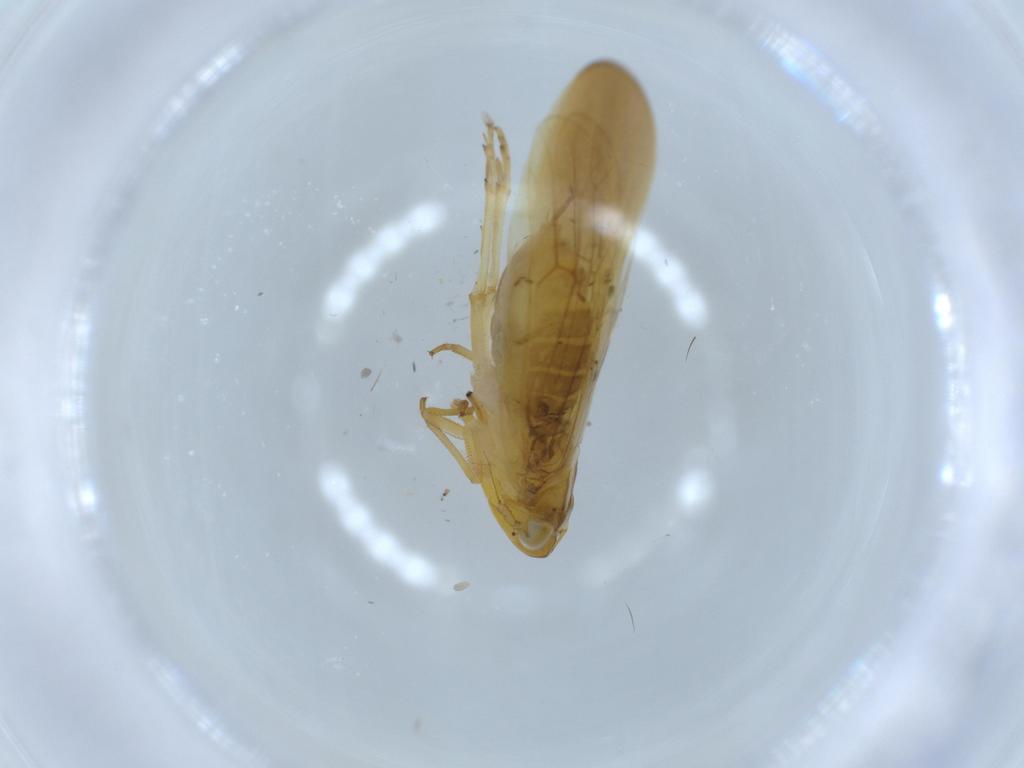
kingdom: Animalia
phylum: Arthropoda
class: Insecta
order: Hemiptera
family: Delphacidae
